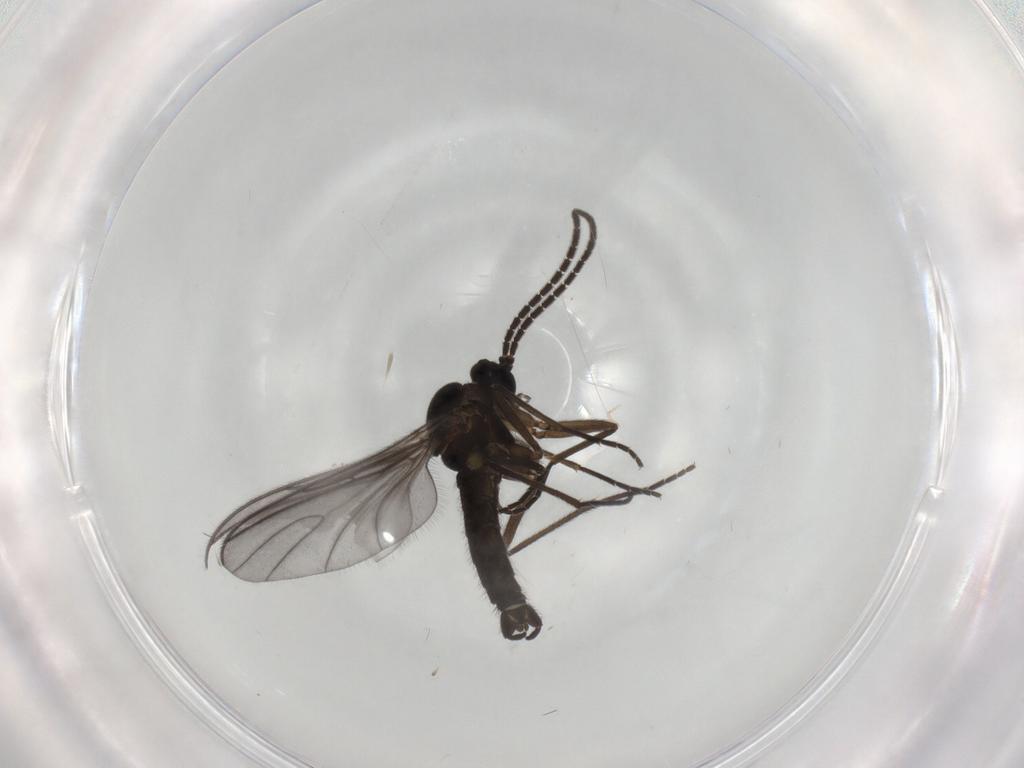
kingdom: Animalia
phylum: Arthropoda
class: Insecta
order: Diptera
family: Sciaridae
